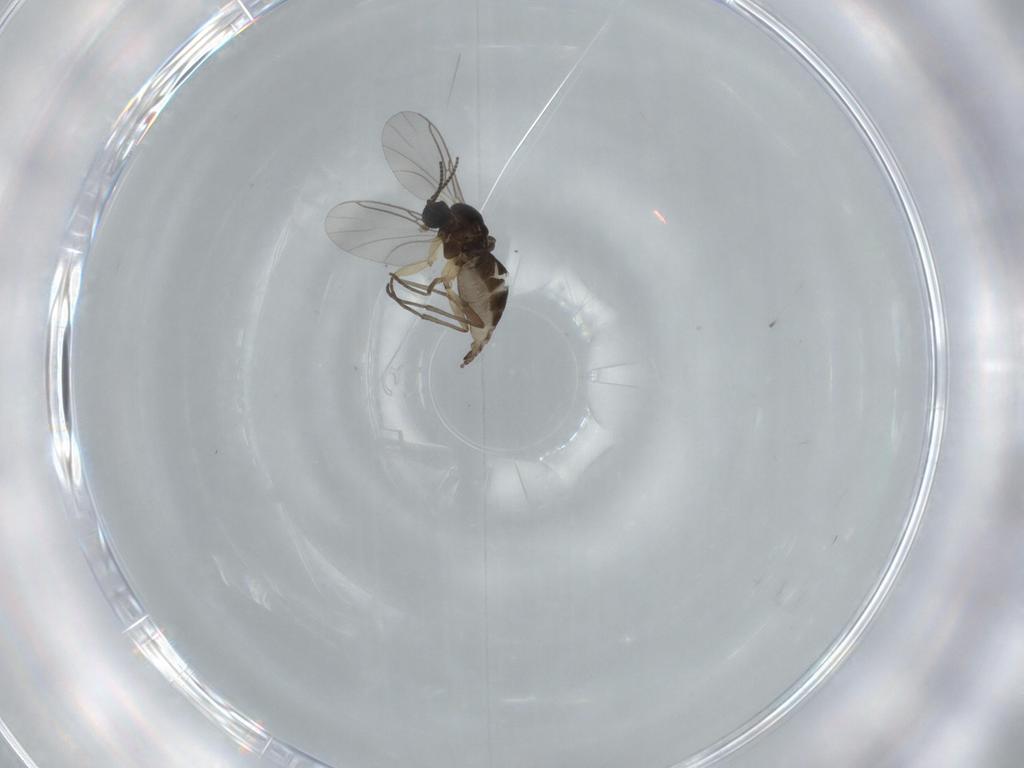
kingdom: Animalia
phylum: Arthropoda
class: Insecta
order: Diptera
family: Sciaridae
